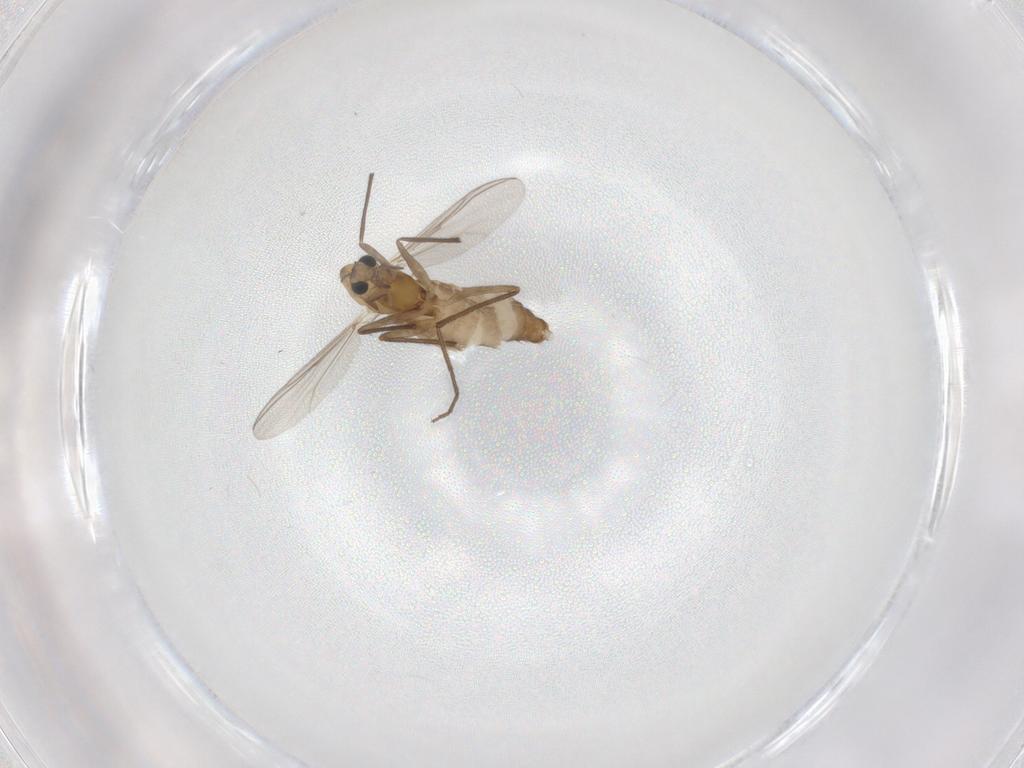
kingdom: Animalia
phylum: Arthropoda
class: Insecta
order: Diptera
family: Chironomidae
